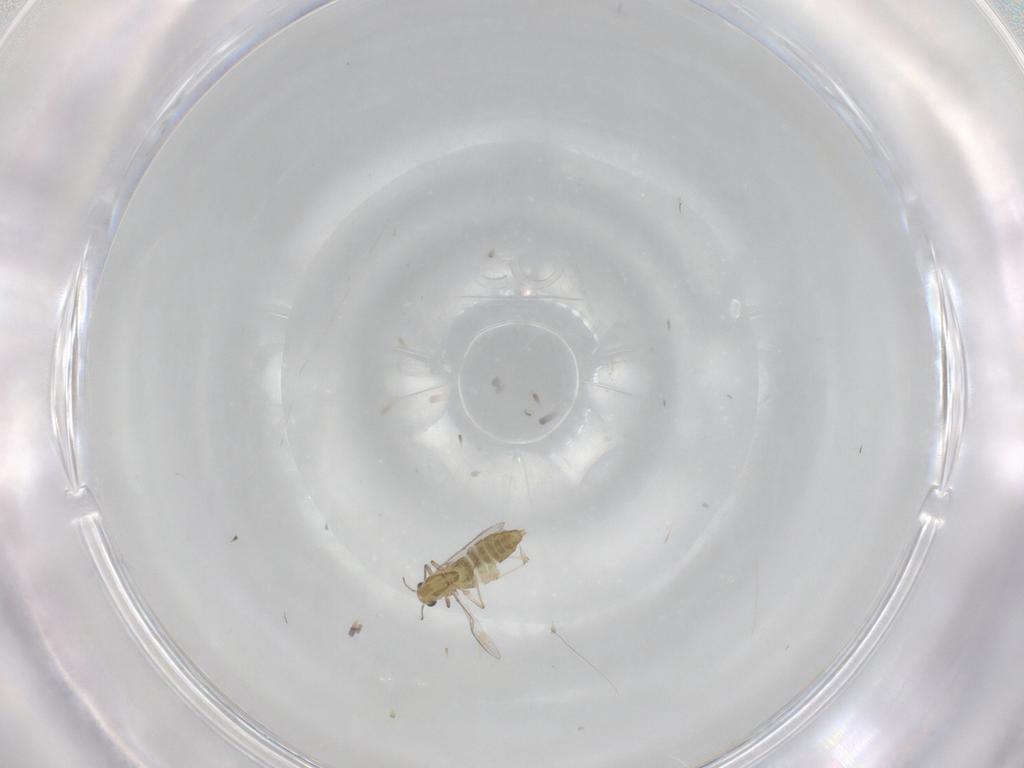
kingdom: Animalia
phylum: Arthropoda
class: Insecta
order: Diptera
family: Chironomidae
